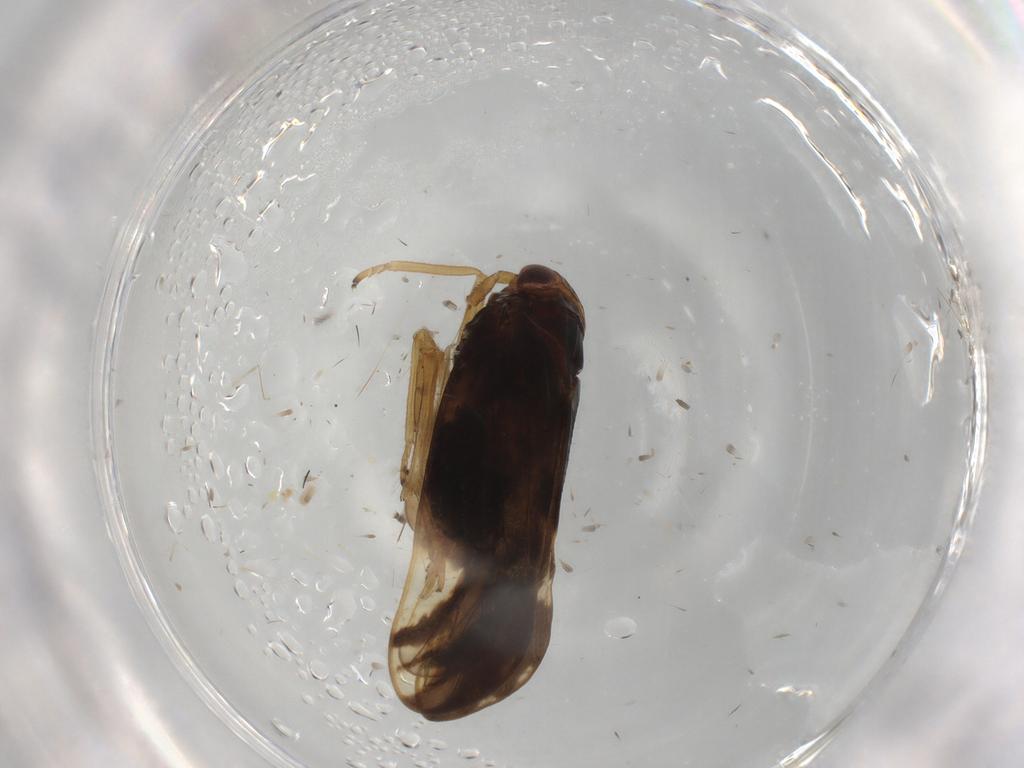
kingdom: Animalia
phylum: Arthropoda
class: Insecta
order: Hemiptera
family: Delphacidae
